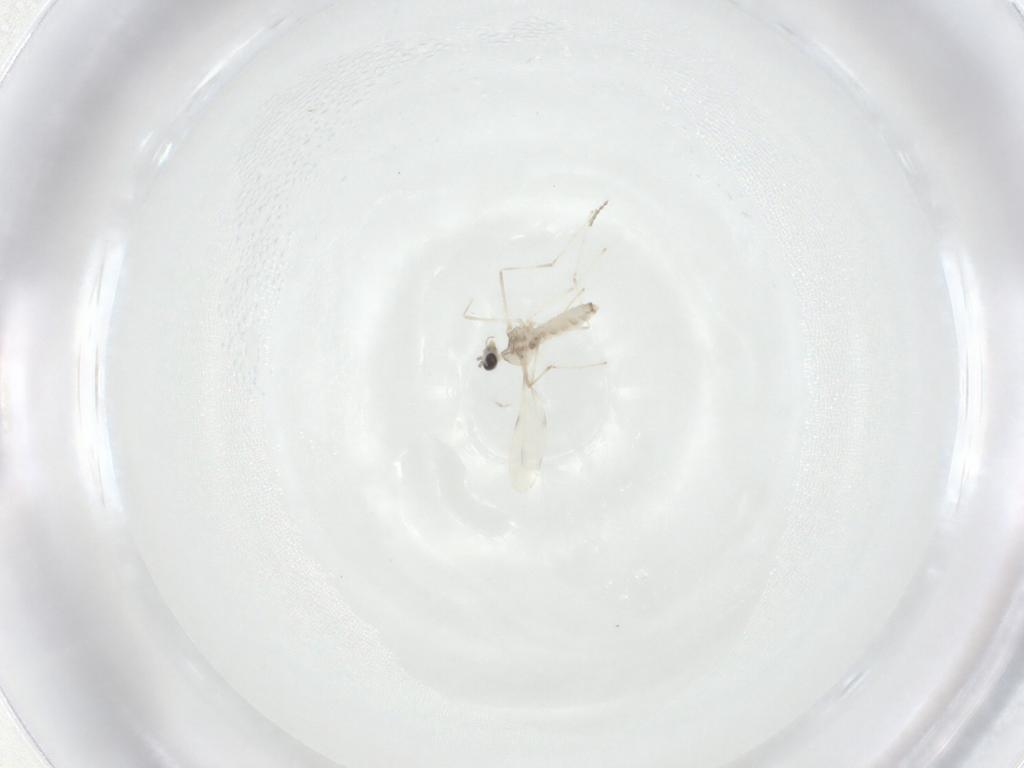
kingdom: Animalia
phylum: Arthropoda
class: Insecta
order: Diptera
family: Cecidomyiidae
